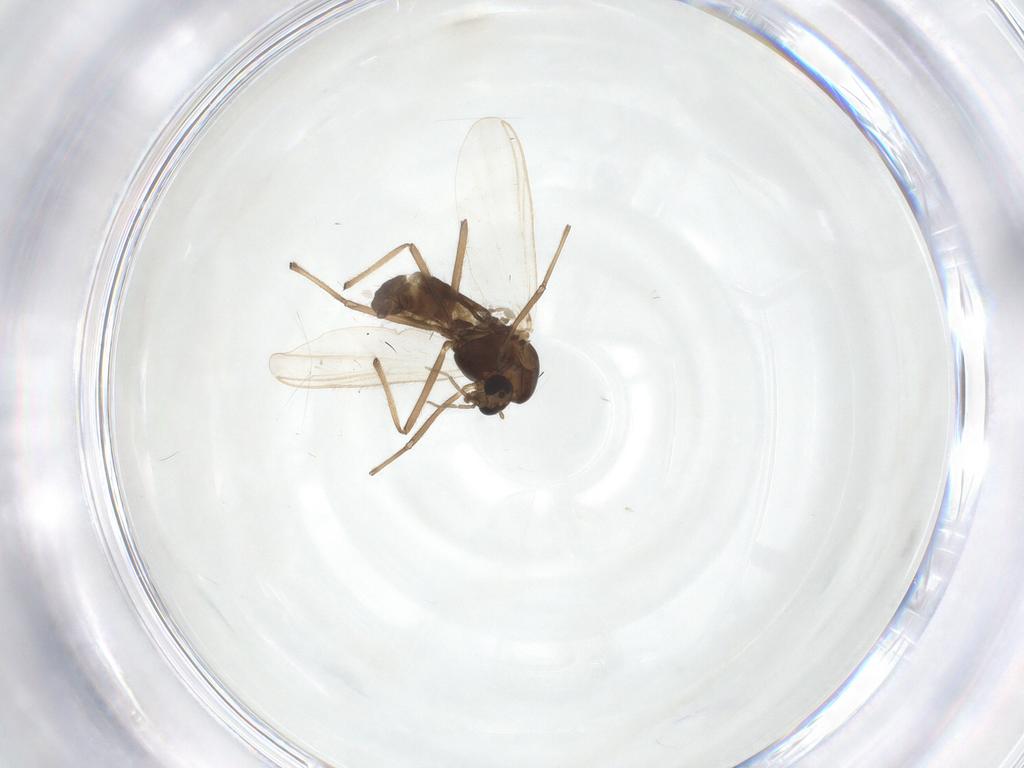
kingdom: Animalia
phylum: Arthropoda
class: Insecta
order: Diptera
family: Chironomidae
